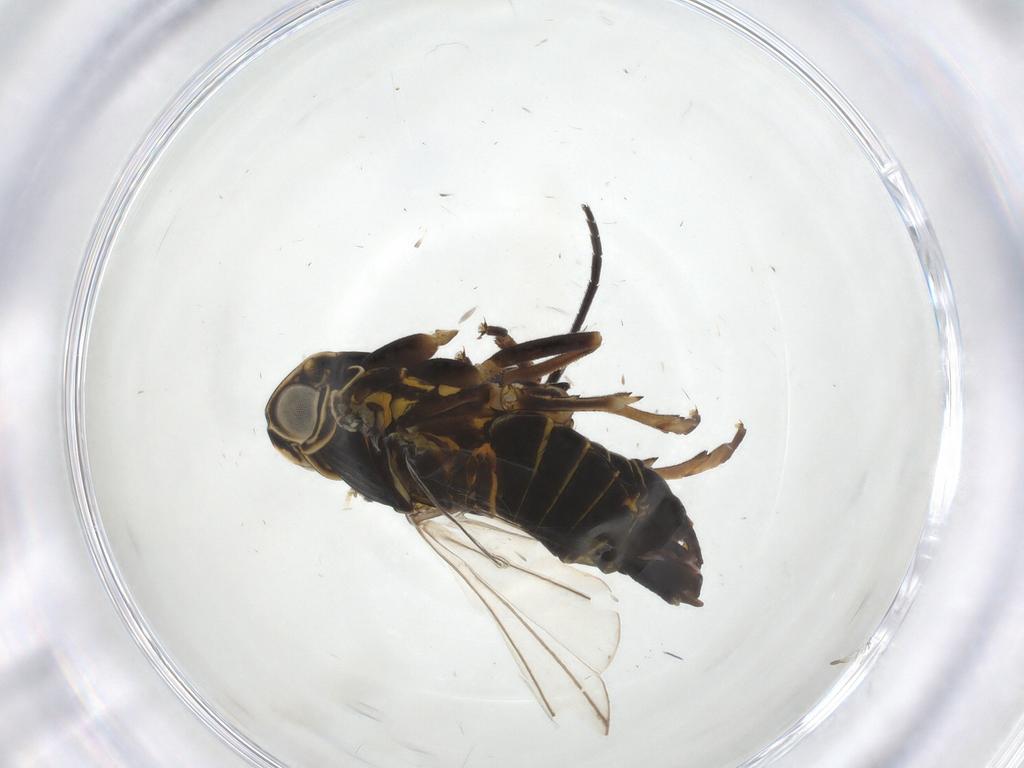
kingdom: Animalia
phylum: Arthropoda
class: Insecta
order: Hemiptera
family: Cixiidae
